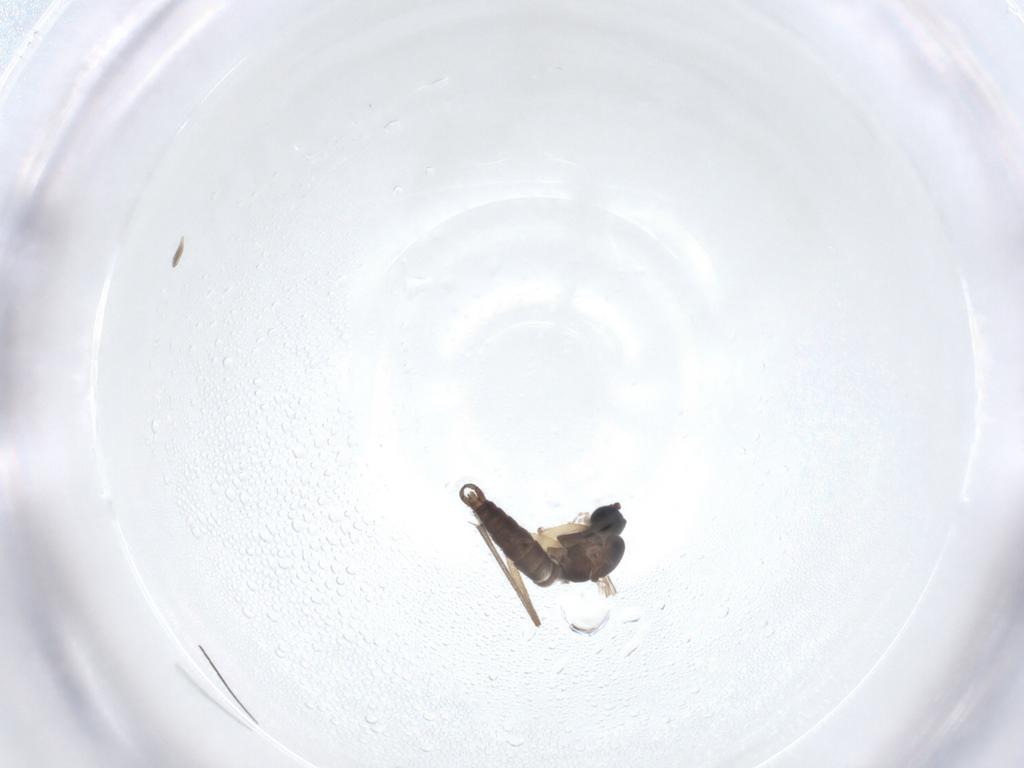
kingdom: Animalia
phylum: Arthropoda
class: Insecta
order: Diptera
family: Sciaridae
